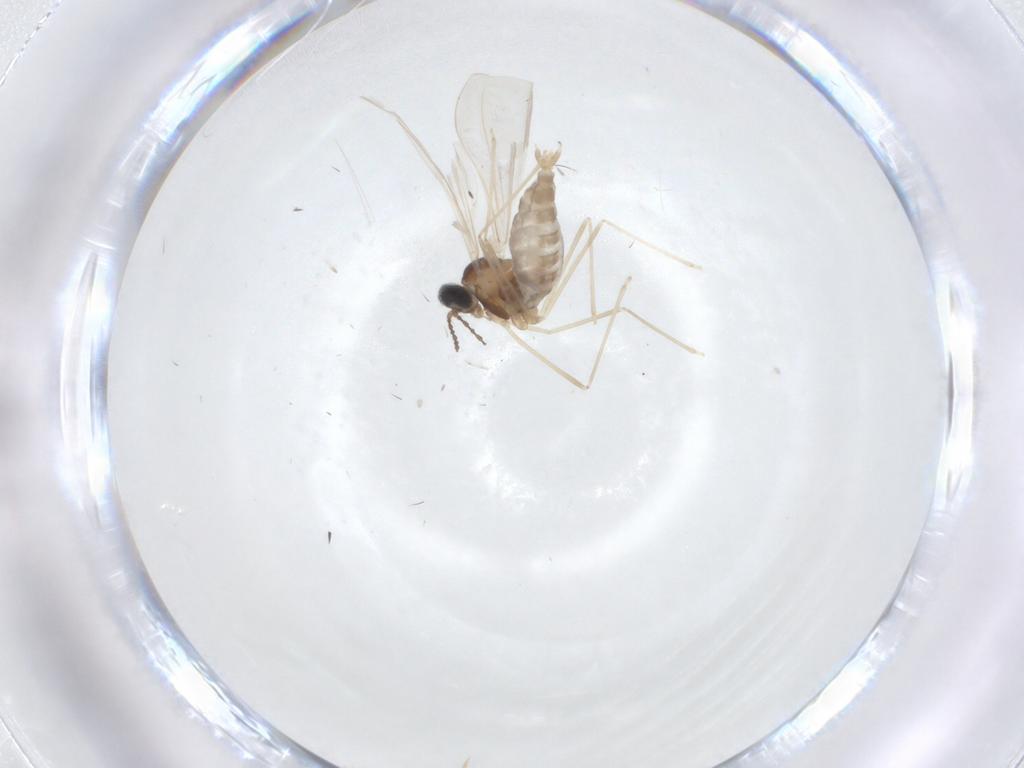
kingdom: Animalia
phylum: Arthropoda
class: Insecta
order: Diptera
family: Cecidomyiidae
